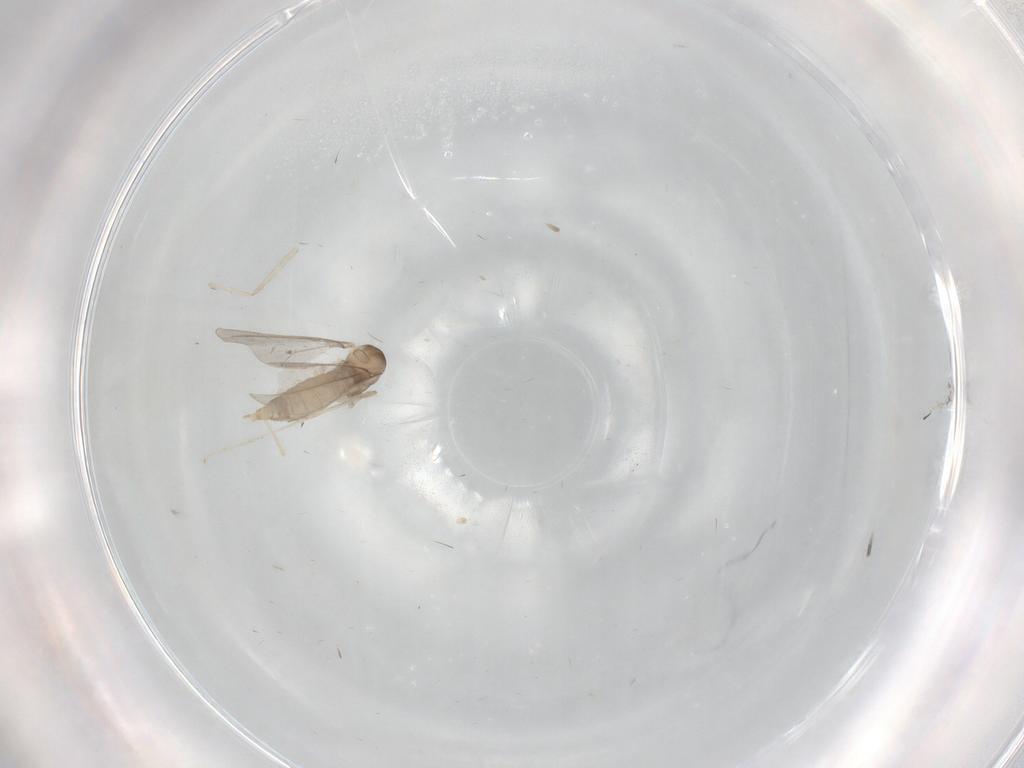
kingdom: Animalia
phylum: Arthropoda
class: Insecta
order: Diptera
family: Cecidomyiidae
